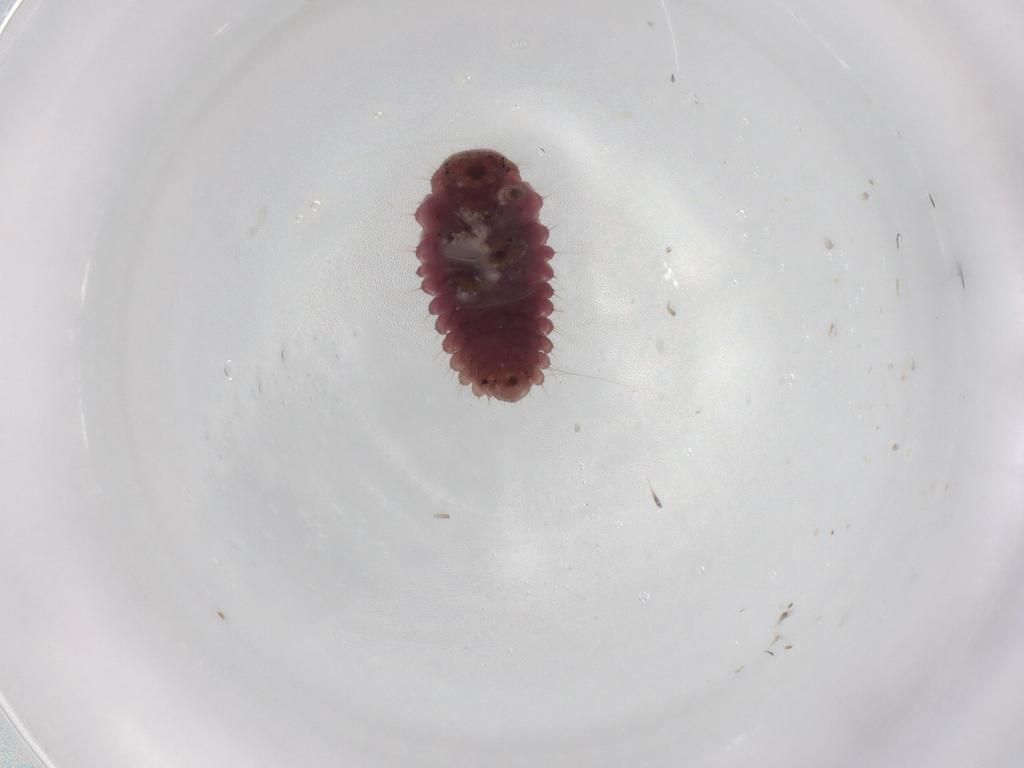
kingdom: Animalia
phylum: Arthropoda
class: Insecta
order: Coleoptera
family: Coccinellidae
